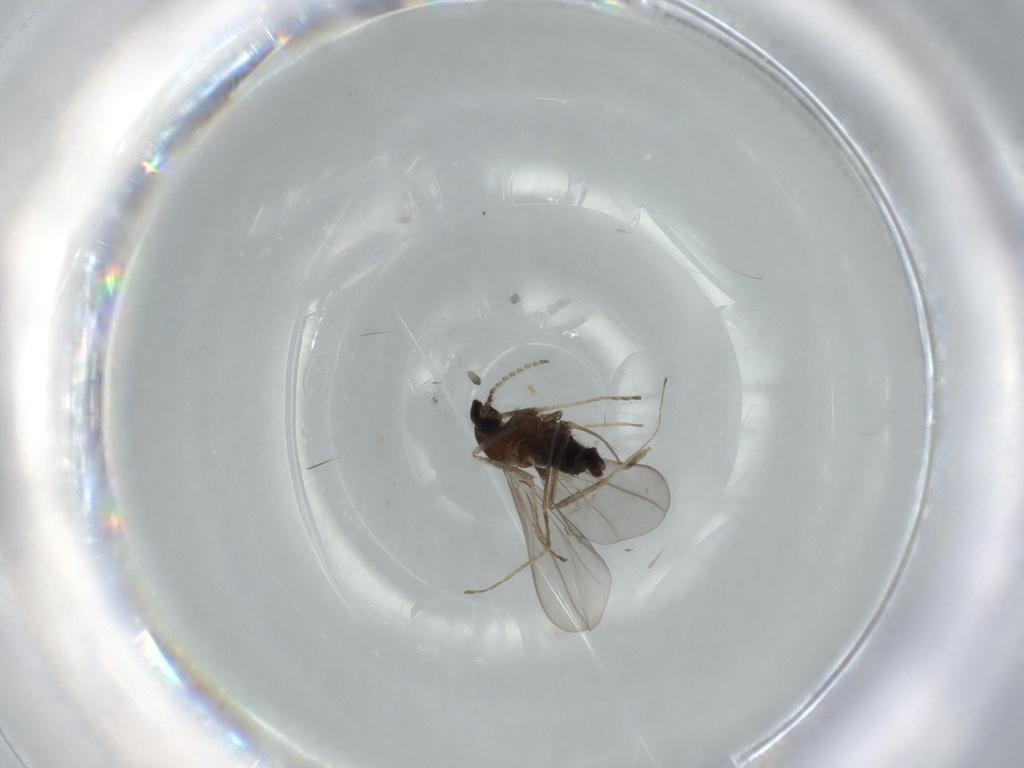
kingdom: Animalia
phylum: Arthropoda
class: Insecta
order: Diptera
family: Cecidomyiidae
